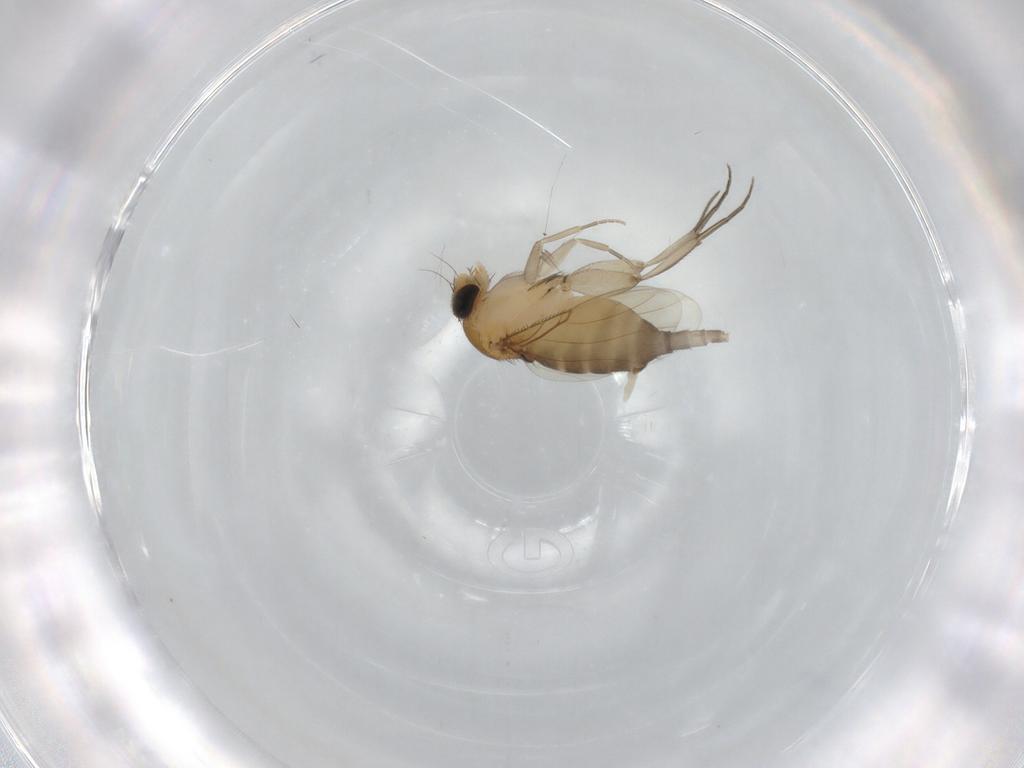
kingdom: Animalia
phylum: Arthropoda
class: Insecta
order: Diptera
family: Phoridae
